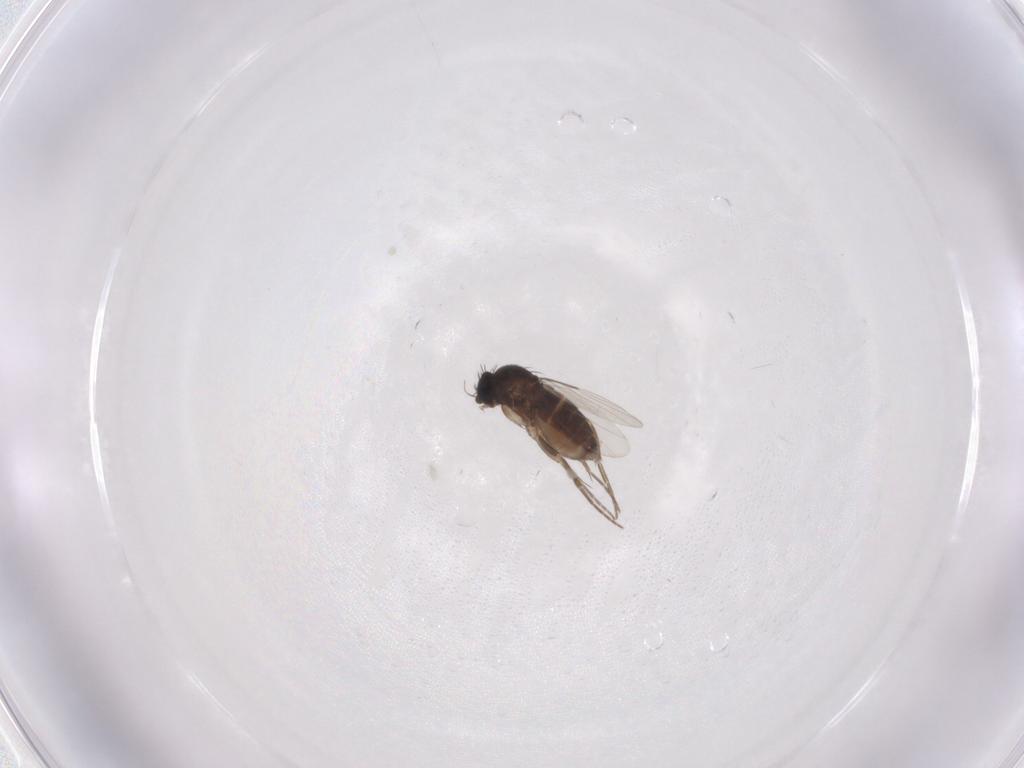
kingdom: Animalia
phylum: Arthropoda
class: Insecta
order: Diptera
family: Phoridae
